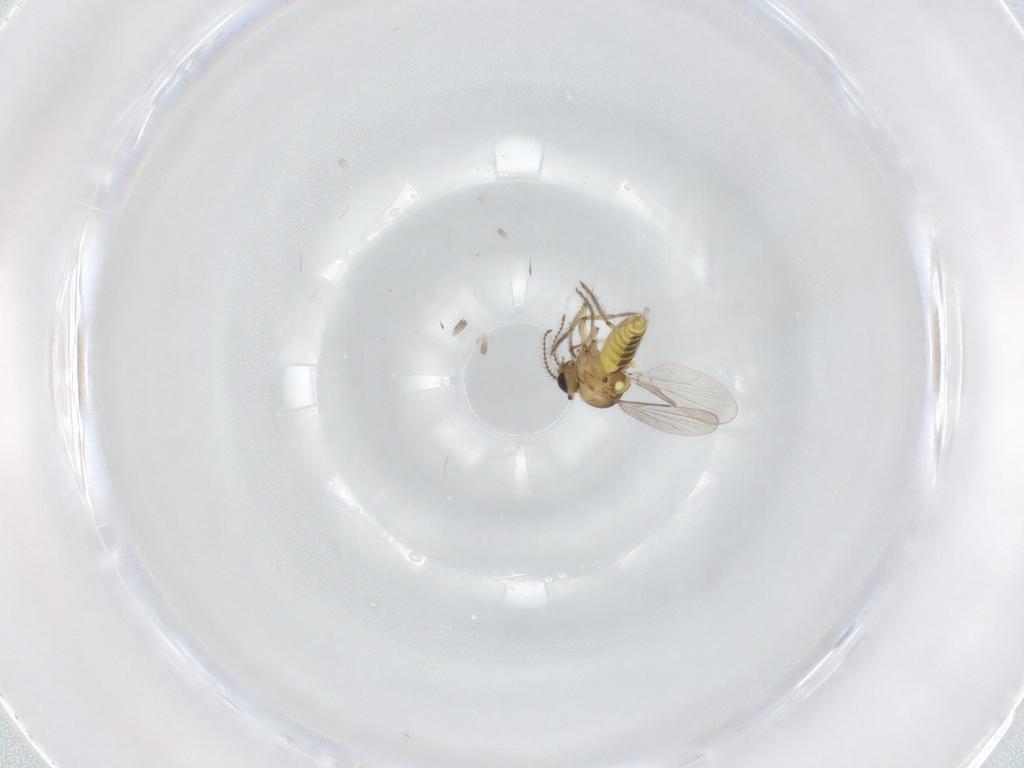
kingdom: Animalia
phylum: Arthropoda
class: Insecta
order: Diptera
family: Ceratopogonidae
